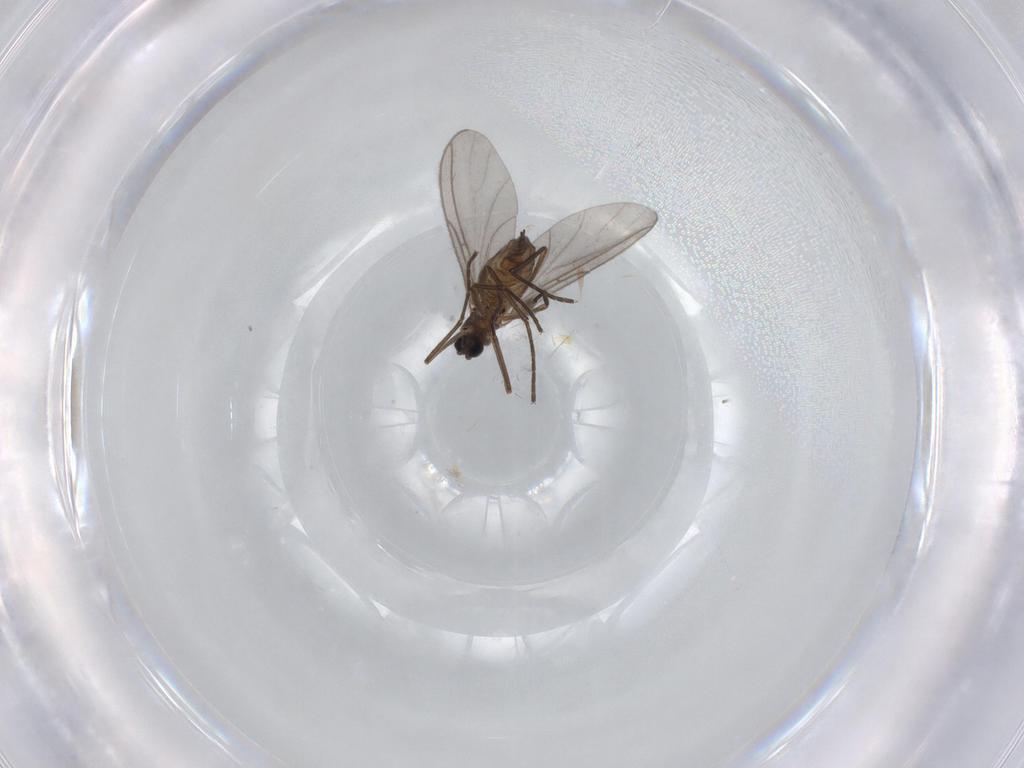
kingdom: Animalia
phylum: Arthropoda
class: Insecta
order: Diptera
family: Sciaridae
